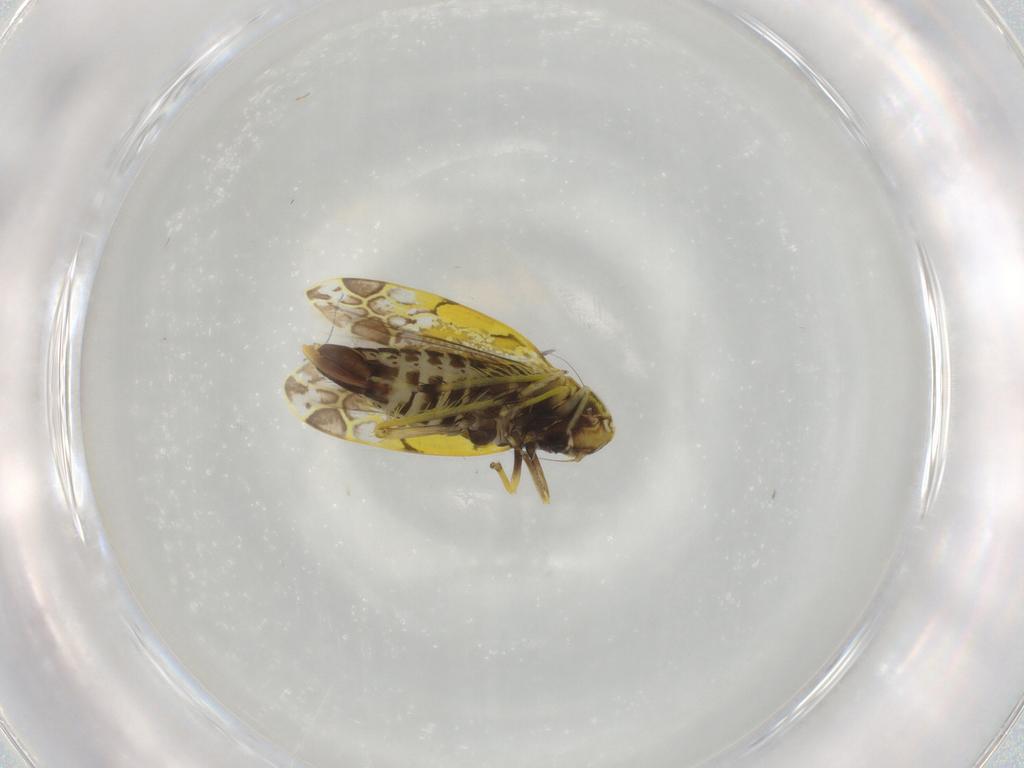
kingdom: Animalia
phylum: Arthropoda
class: Insecta
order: Hemiptera
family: Cicadellidae
